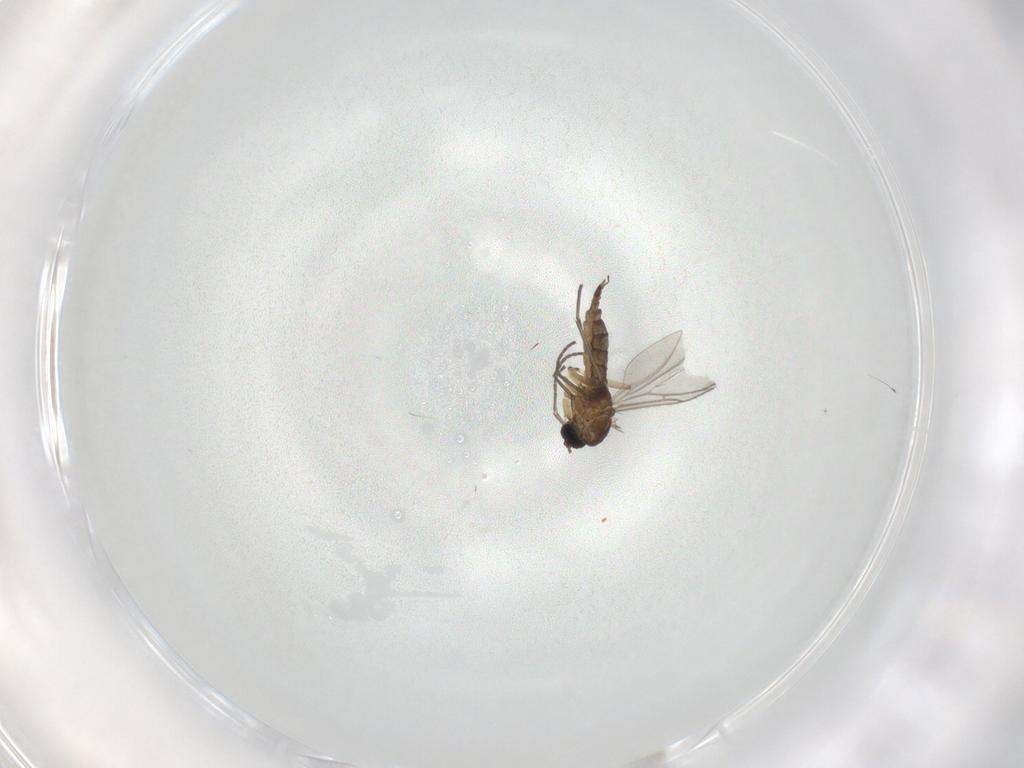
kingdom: Animalia
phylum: Arthropoda
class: Insecta
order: Diptera
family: Sciaridae
